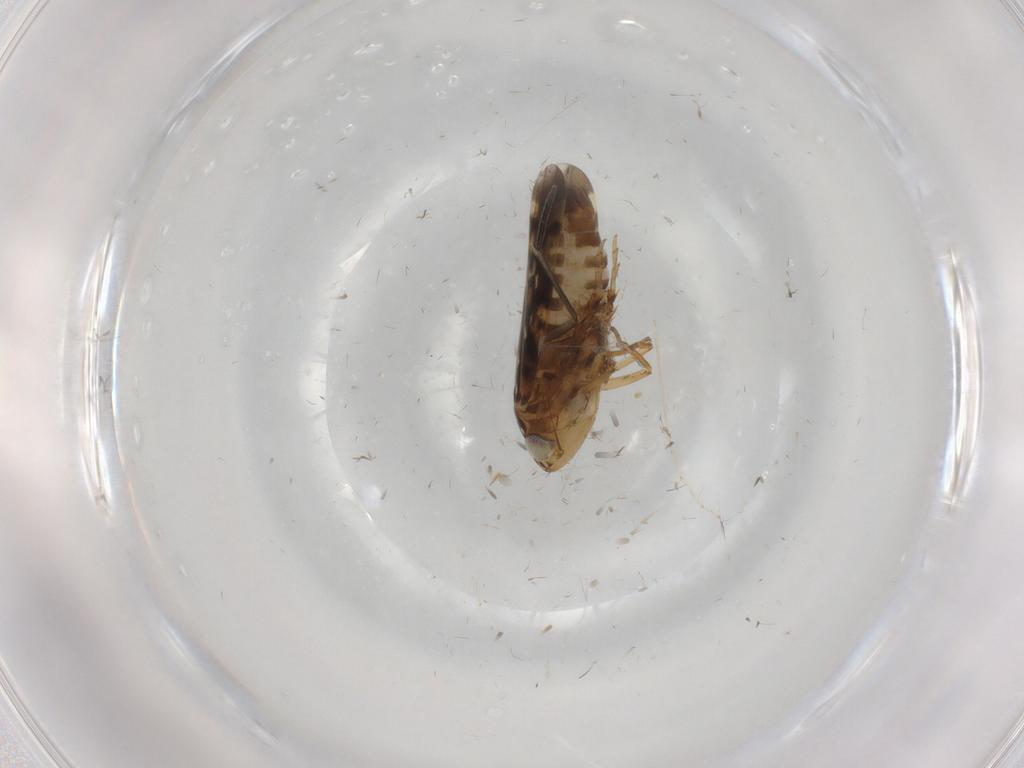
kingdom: Animalia
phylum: Arthropoda
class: Insecta
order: Hemiptera
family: Cicadellidae
